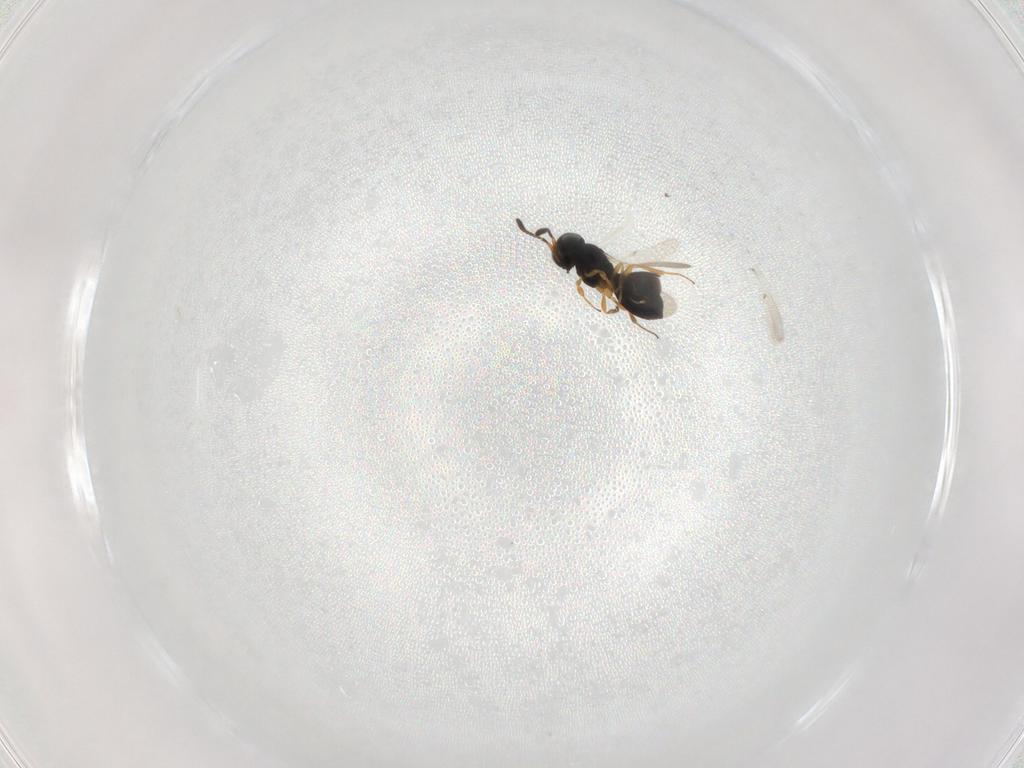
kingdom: Animalia
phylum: Arthropoda
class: Insecta
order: Hymenoptera
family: Scelionidae
